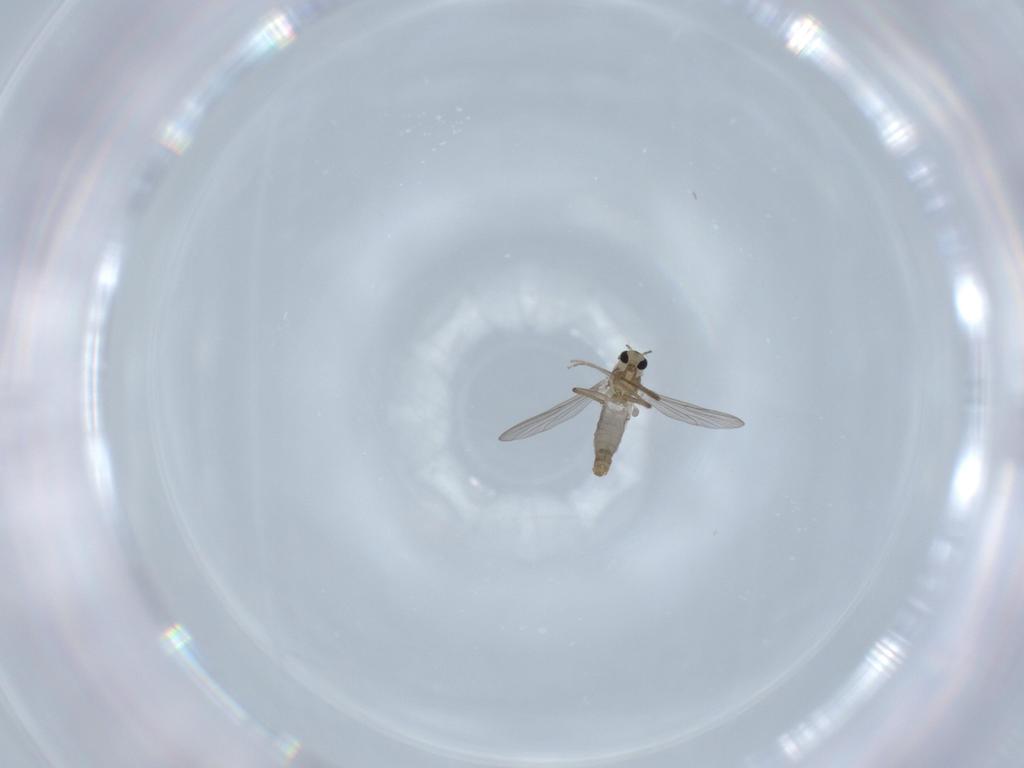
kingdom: Animalia
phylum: Arthropoda
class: Insecta
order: Diptera
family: Chironomidae
